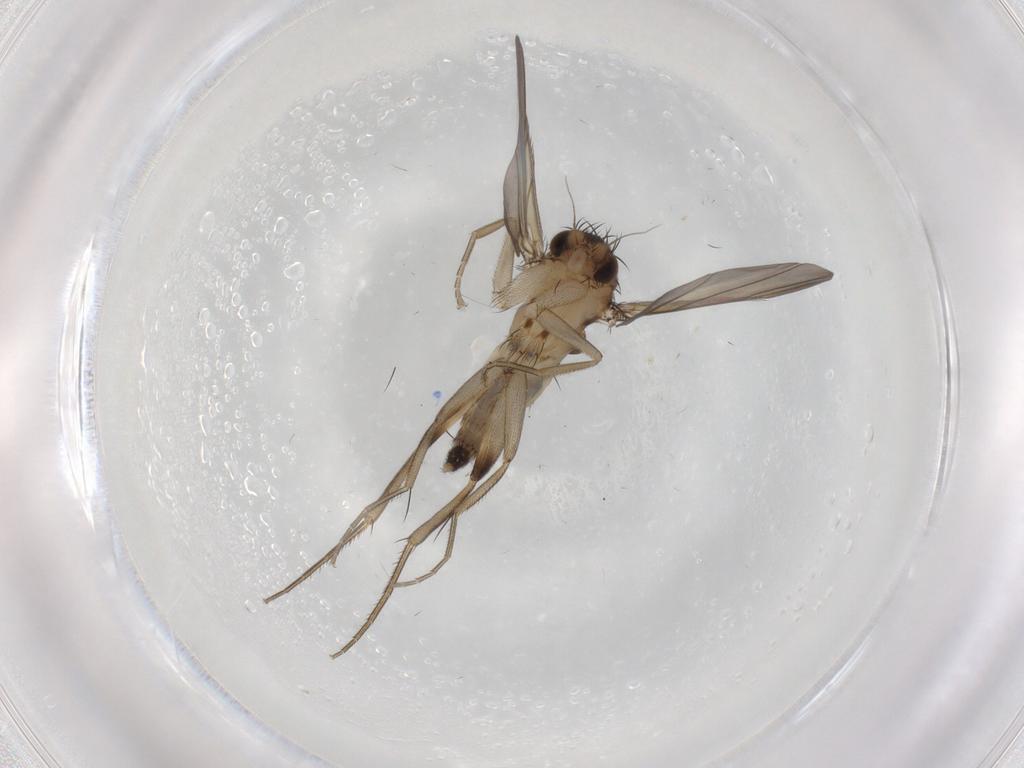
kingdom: Animalia
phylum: Arthropoda
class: Insecta
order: Diptera
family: Phoridae
